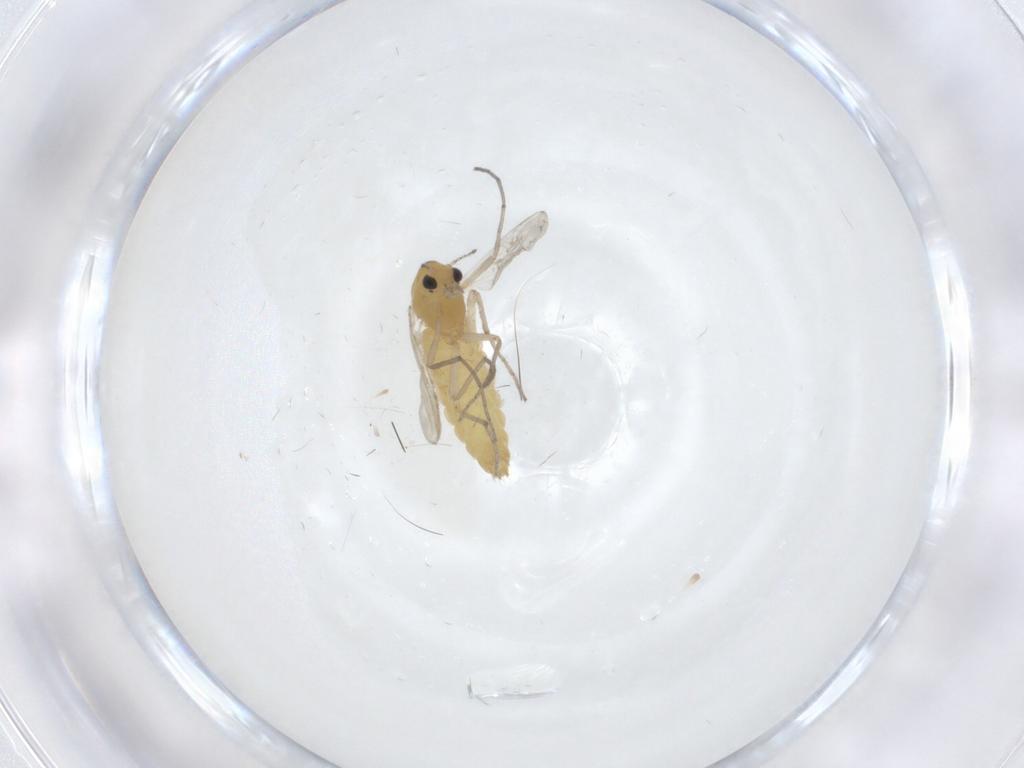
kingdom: Animalia
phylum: Arthropoda
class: Insecta
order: Diptera
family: Chironomidae
